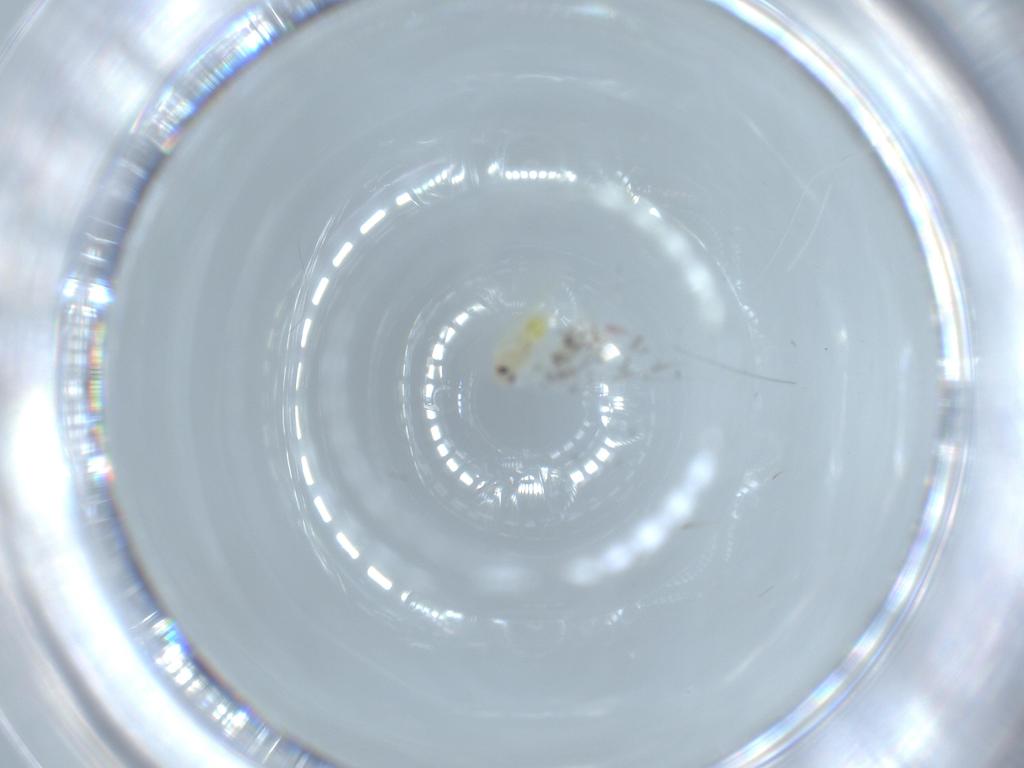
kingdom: Animalia
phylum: Arthropoda
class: Insecta
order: Hemiptera
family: Aleyrodidae
